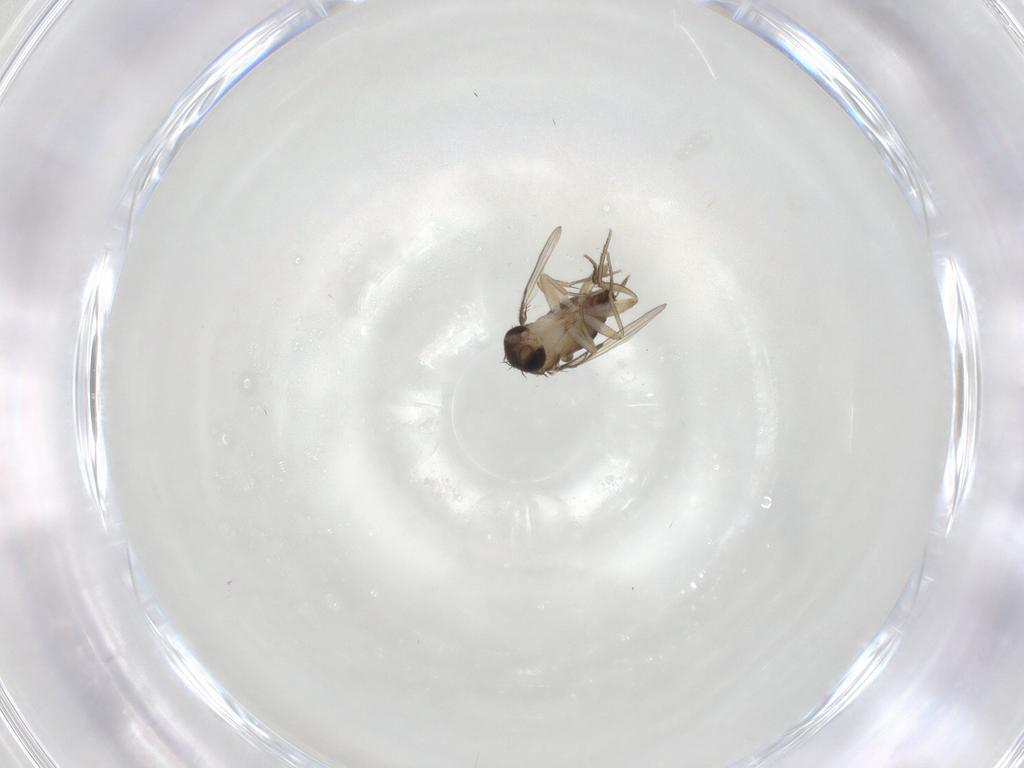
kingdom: Animalia
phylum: Arthropoda
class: Insecta
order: Diptera
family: Phoridae
